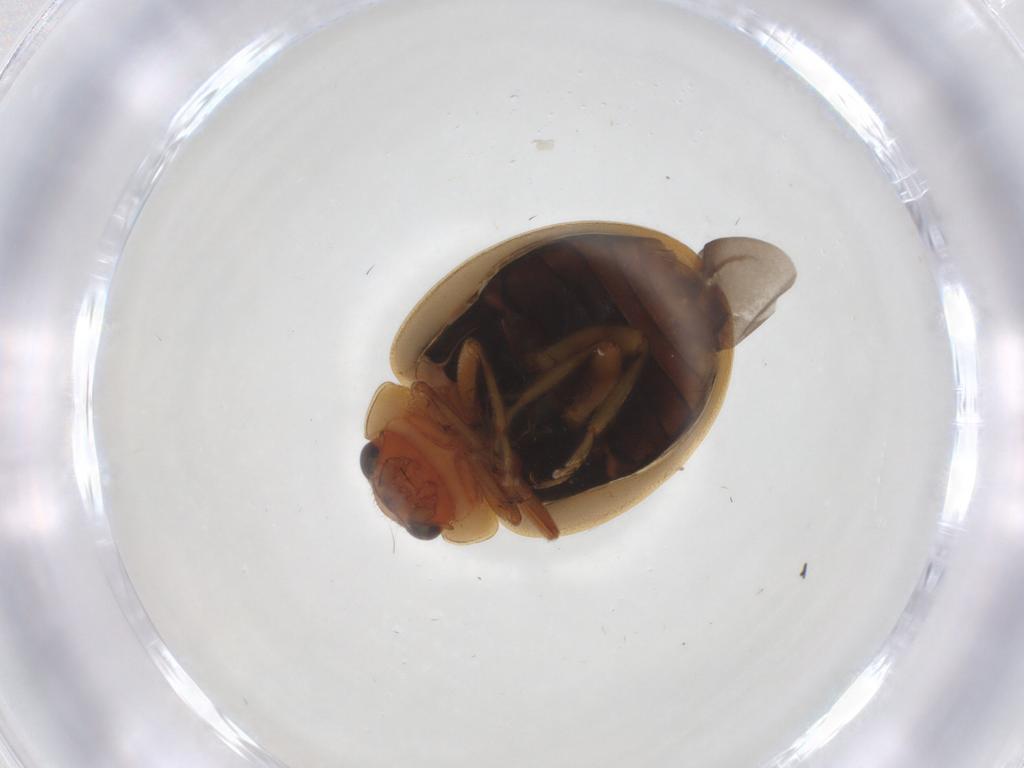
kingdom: Animalia
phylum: Arthropoda
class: Insecta
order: Coleoptera
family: Coccinellidae
